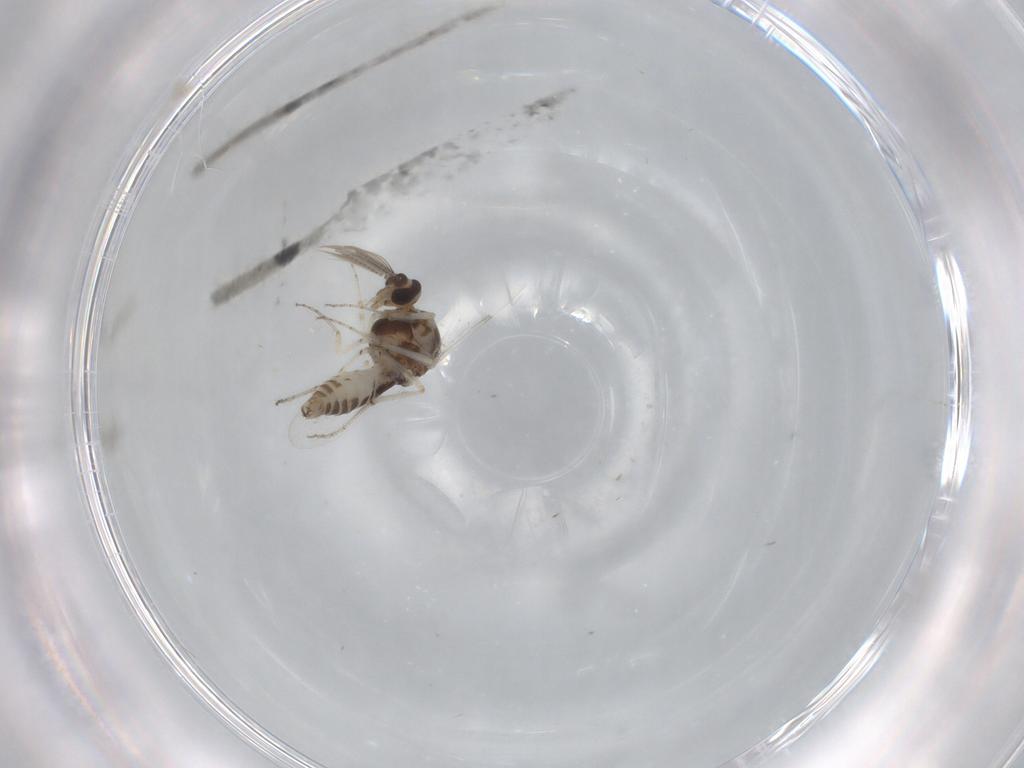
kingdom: Animalia
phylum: Arthropoda
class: Insecta
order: Diptera
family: Ceratopogonidae
